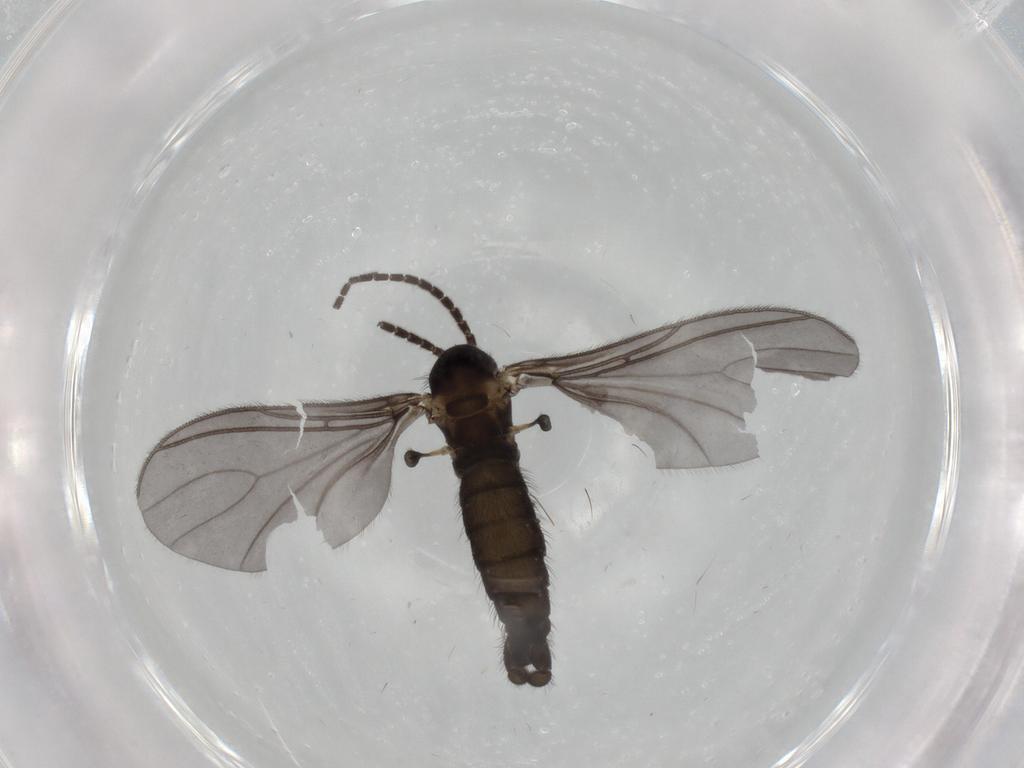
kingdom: Animalia
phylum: Arthropoda
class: Insecta
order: Diptera
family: Sciaridae
